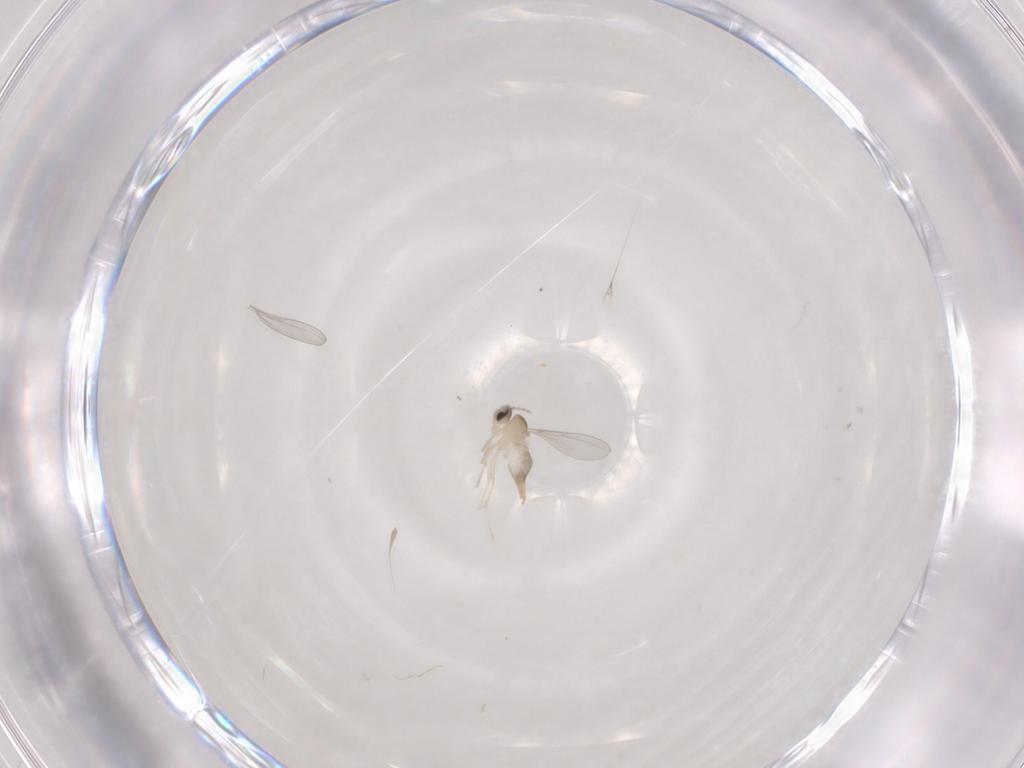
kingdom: Animalia
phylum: Arthropoda
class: Insecta
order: Diptera
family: Cecidomyiidae
